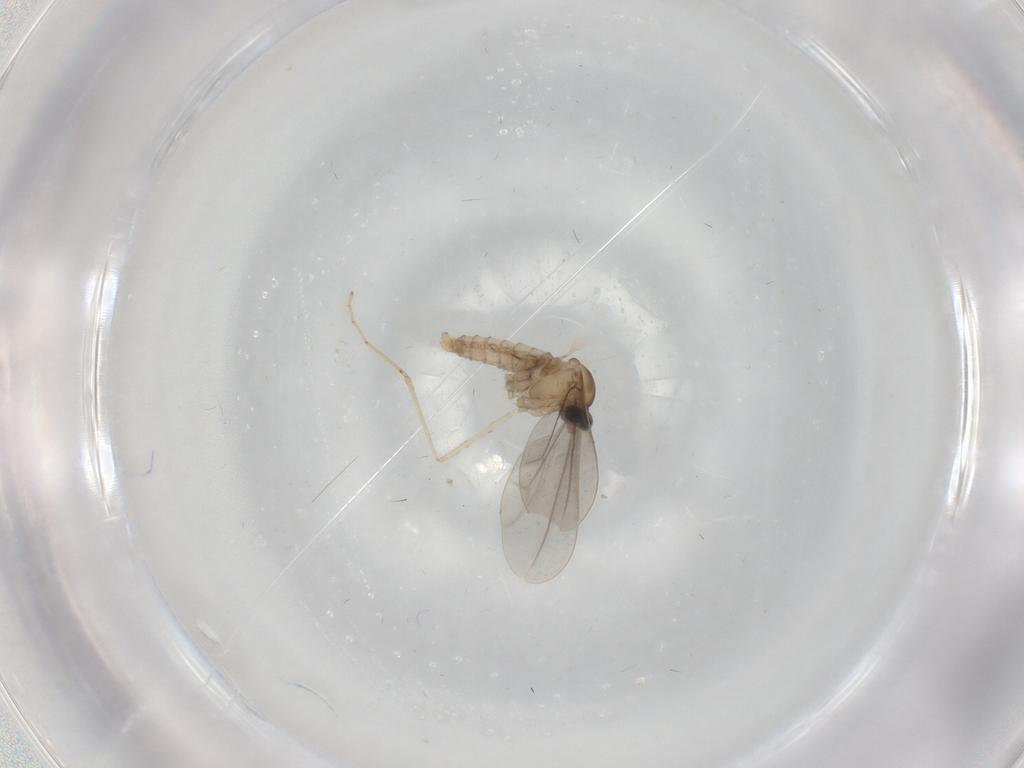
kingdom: Animalia
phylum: Arthropoda
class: Insecta
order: Diptera
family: Cecidomyiidae
